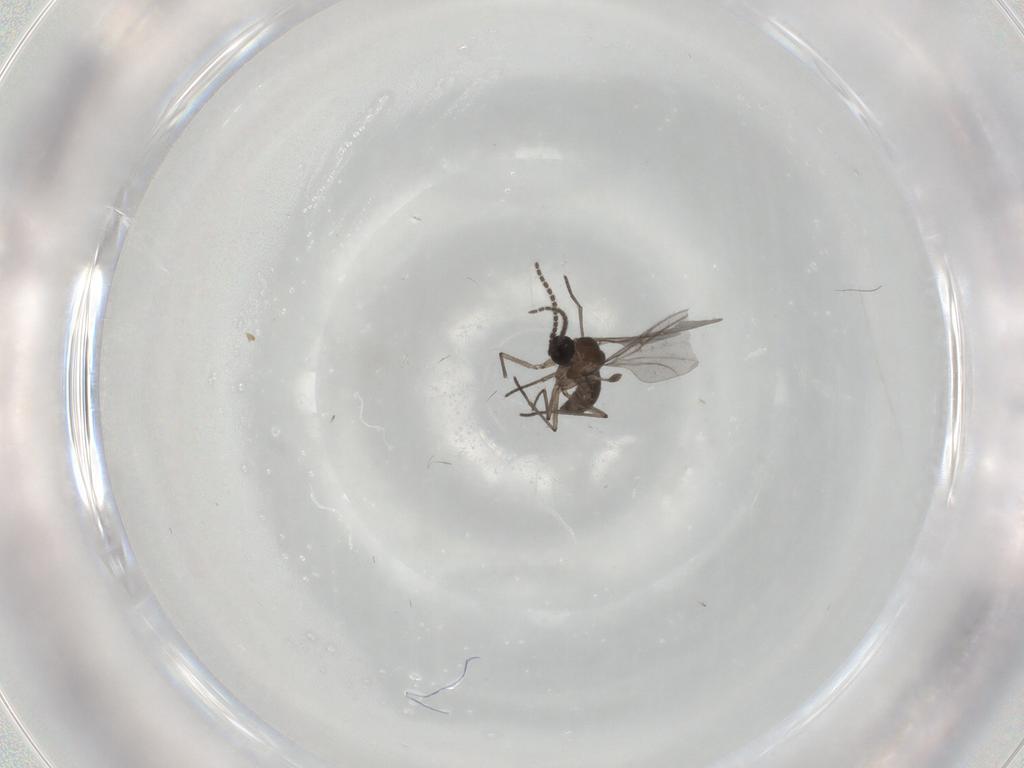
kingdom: Animalia
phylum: Arthropoda
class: Insecta
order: Diptera
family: Sciaridae
